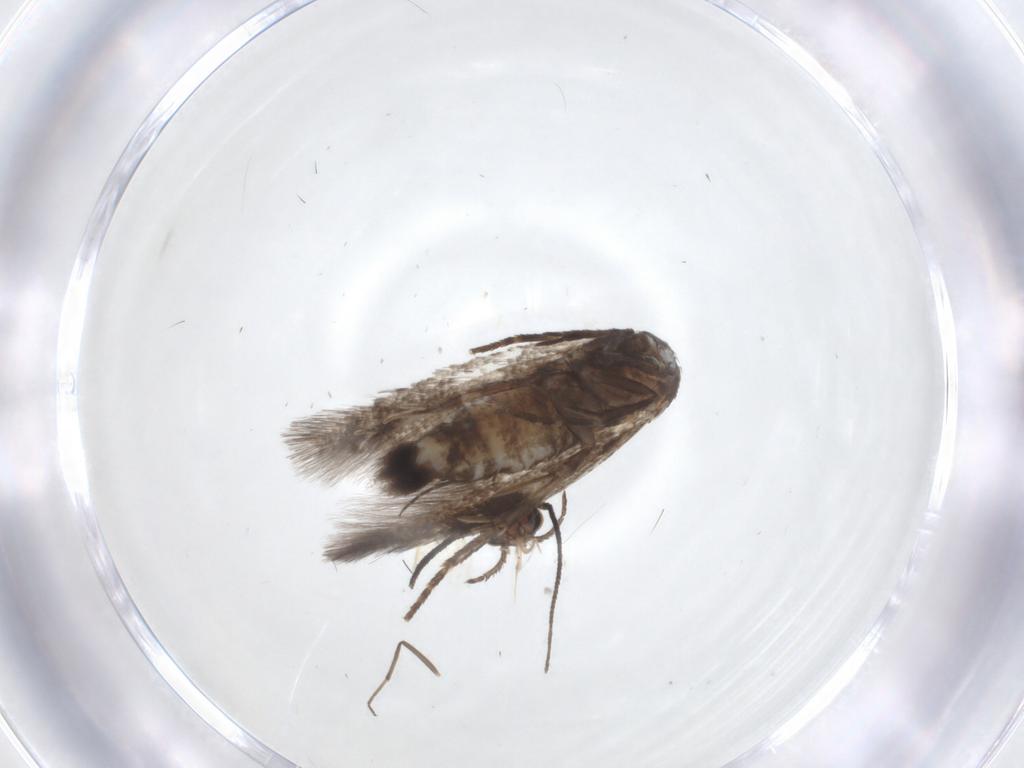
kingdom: Animalia
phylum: Arthropoda
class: Insecta
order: Lepidoptera
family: Elachistidae
